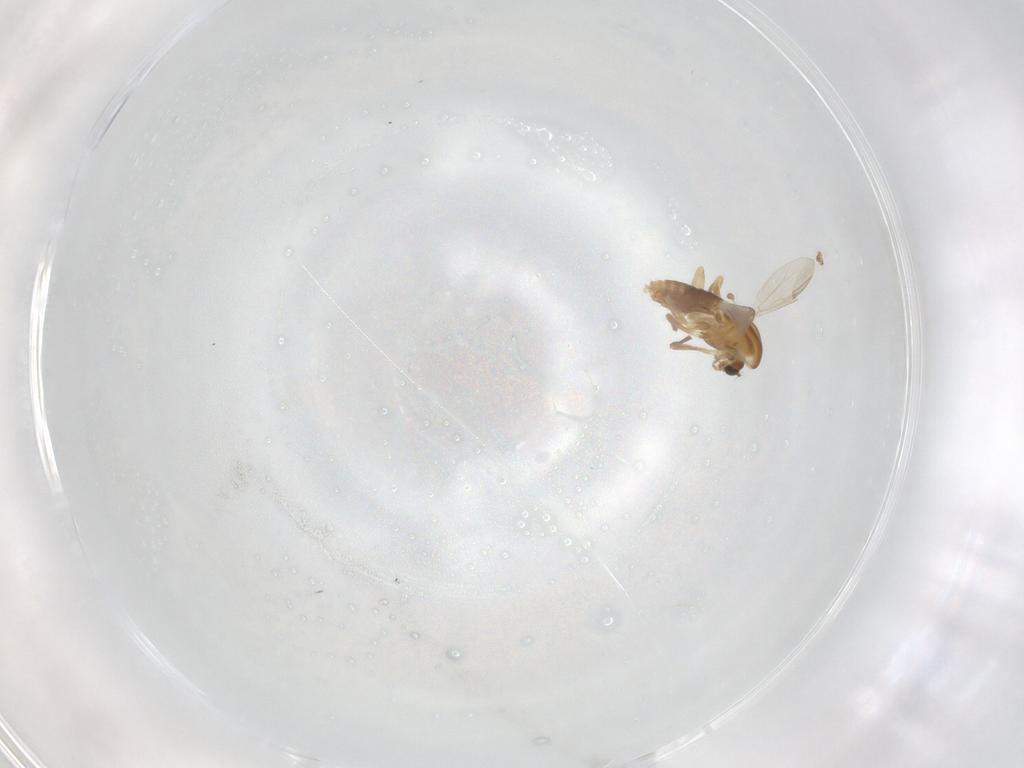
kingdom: Animalia
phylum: Arthropoda
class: Insecta
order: Diptera
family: Chironomidae
